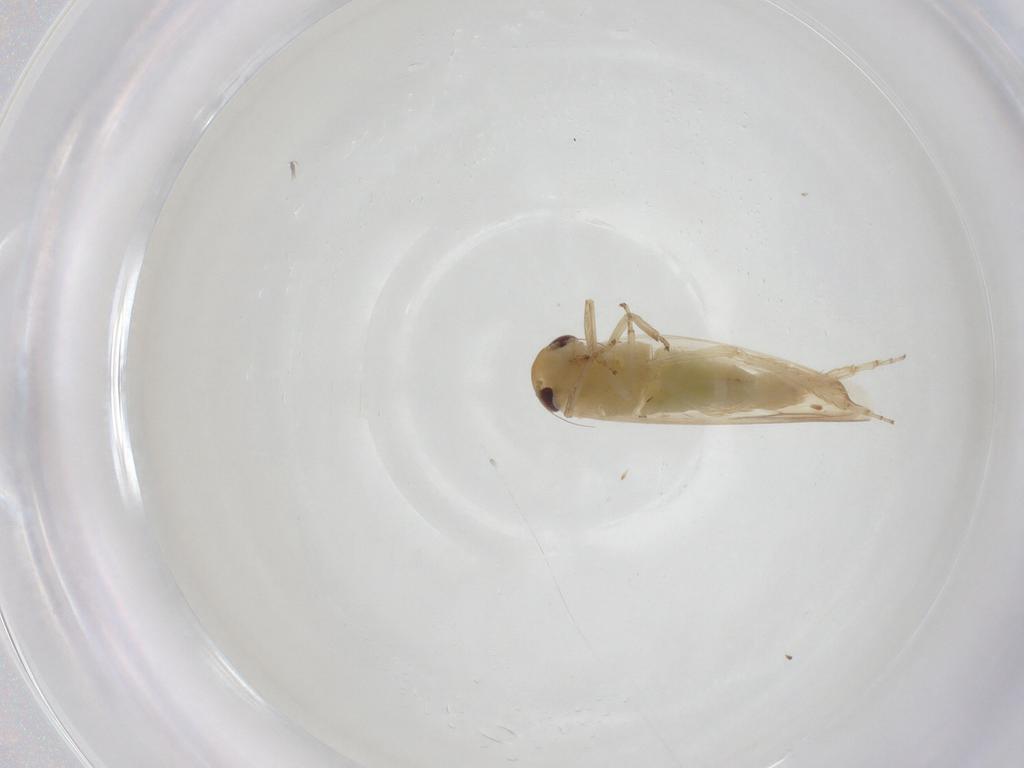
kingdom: Animalia
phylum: Arthropoda
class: Insecta
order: Hemiptera
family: Cicadellidae
